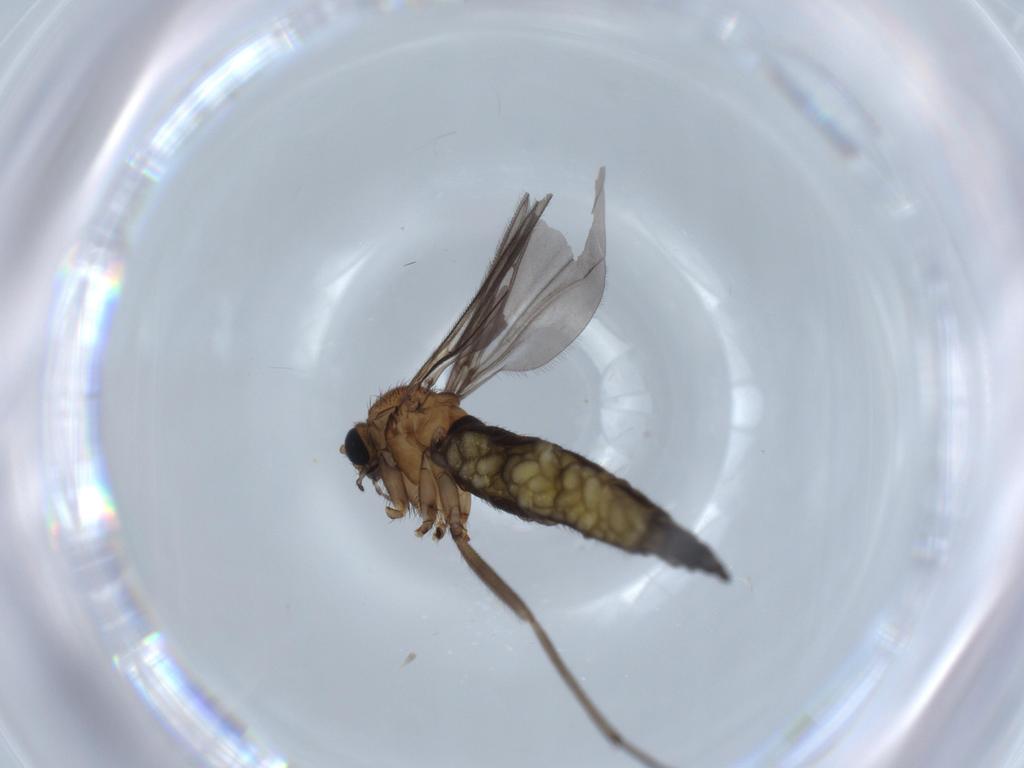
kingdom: Animalia
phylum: Arthropoda
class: Insecta
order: Diptera
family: Sciaridae
